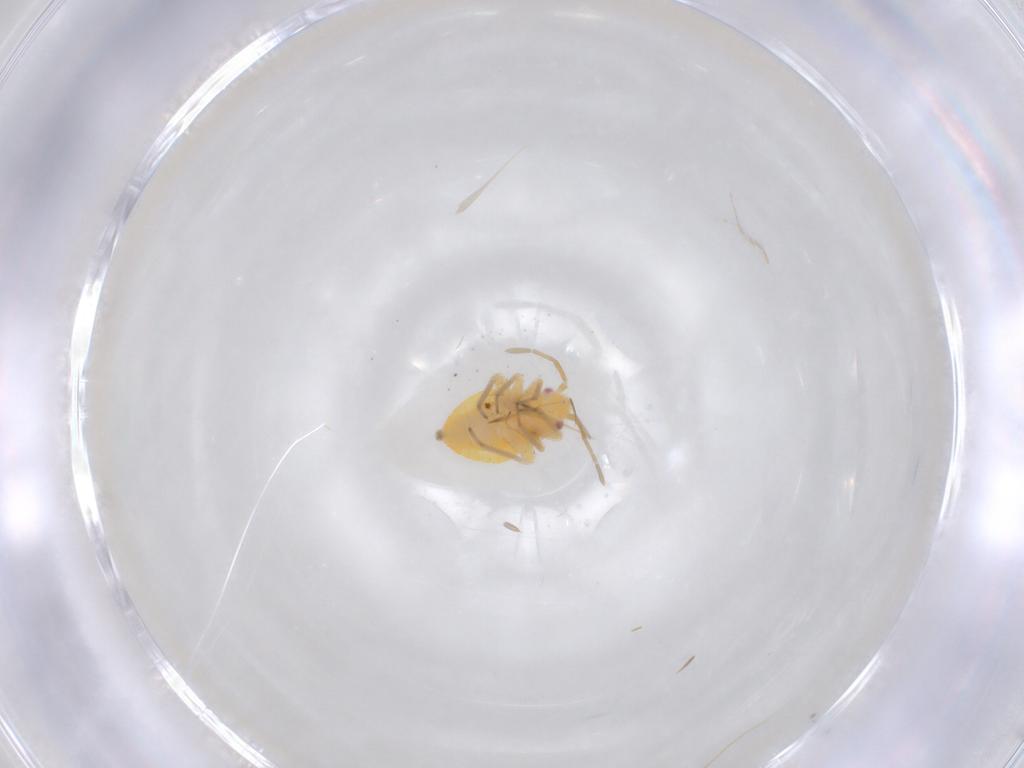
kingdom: Animalia
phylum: Arthropoda
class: Insecta
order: Hemiptera
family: Miridae
